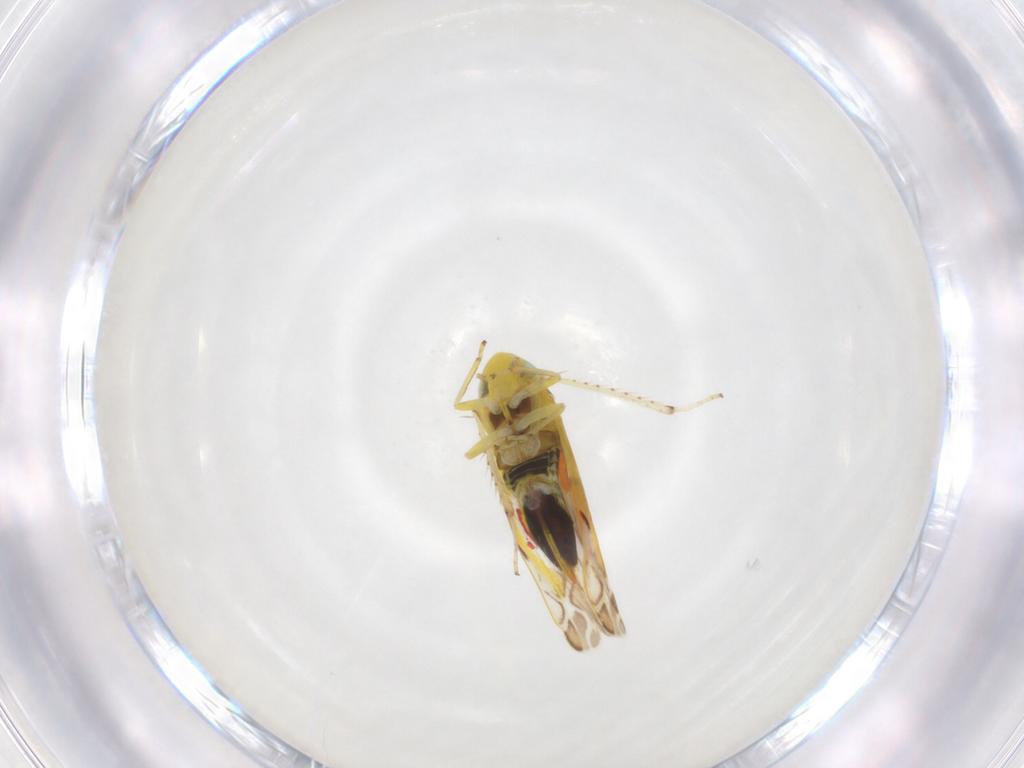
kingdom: Animalia
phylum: Arthropoda
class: Insecta
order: Hemiptera
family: Cicadellidae
